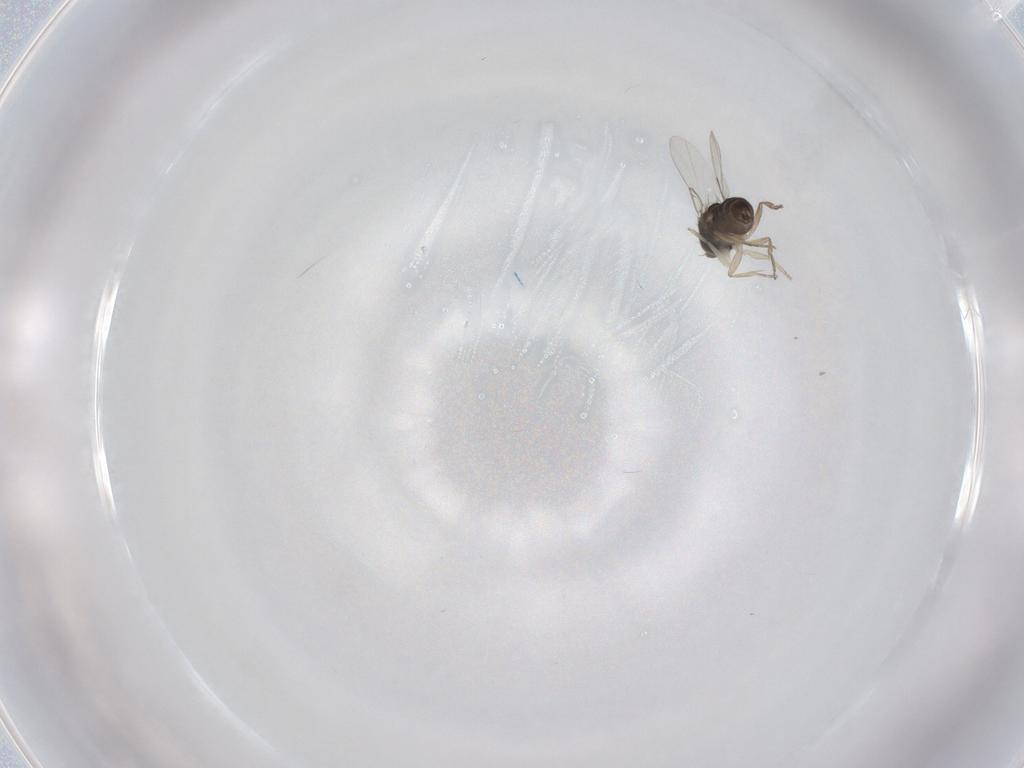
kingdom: Animalia
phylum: Arthropoda
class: Insecta
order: Diptera
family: Phoridae
